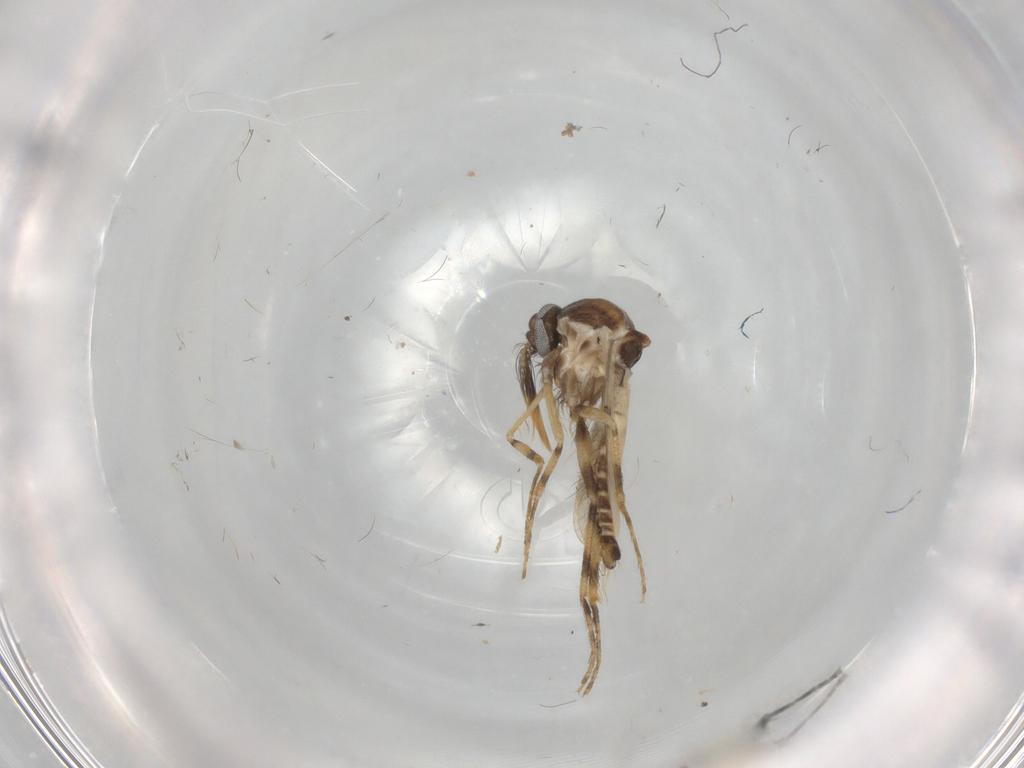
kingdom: Animalia
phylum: Arthropoda
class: Insecta
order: Diptera
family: Ceratopogonidae
